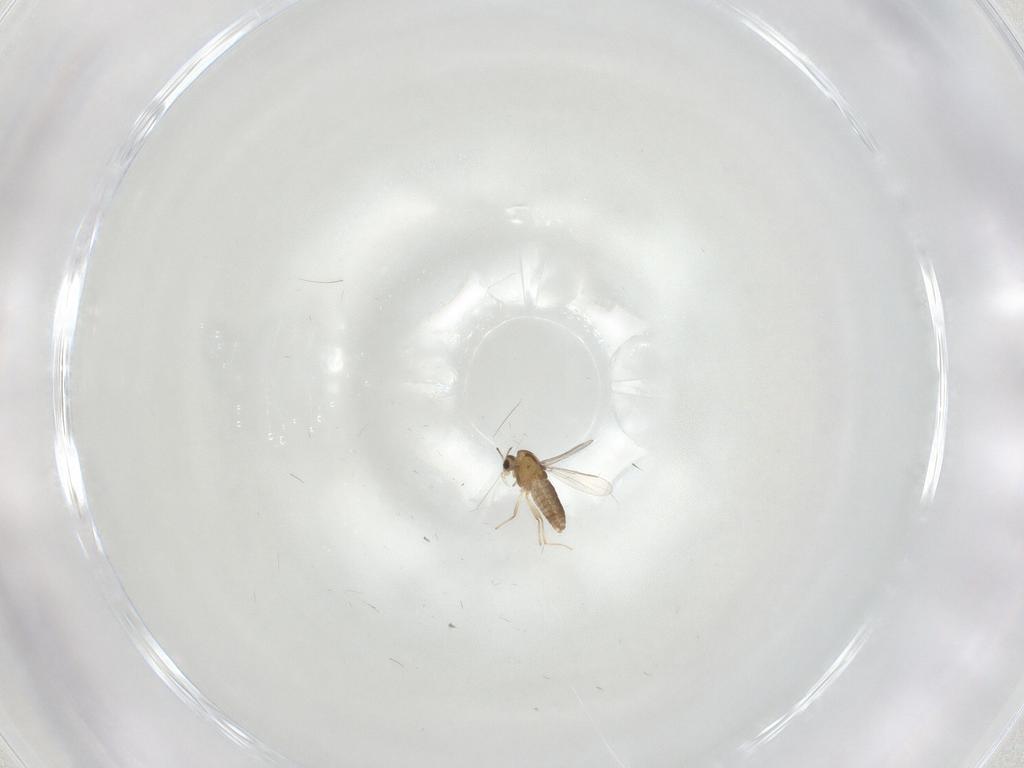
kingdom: Animalia
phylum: Arthropoda
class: Insecta
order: Diptera
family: Chironomidae
